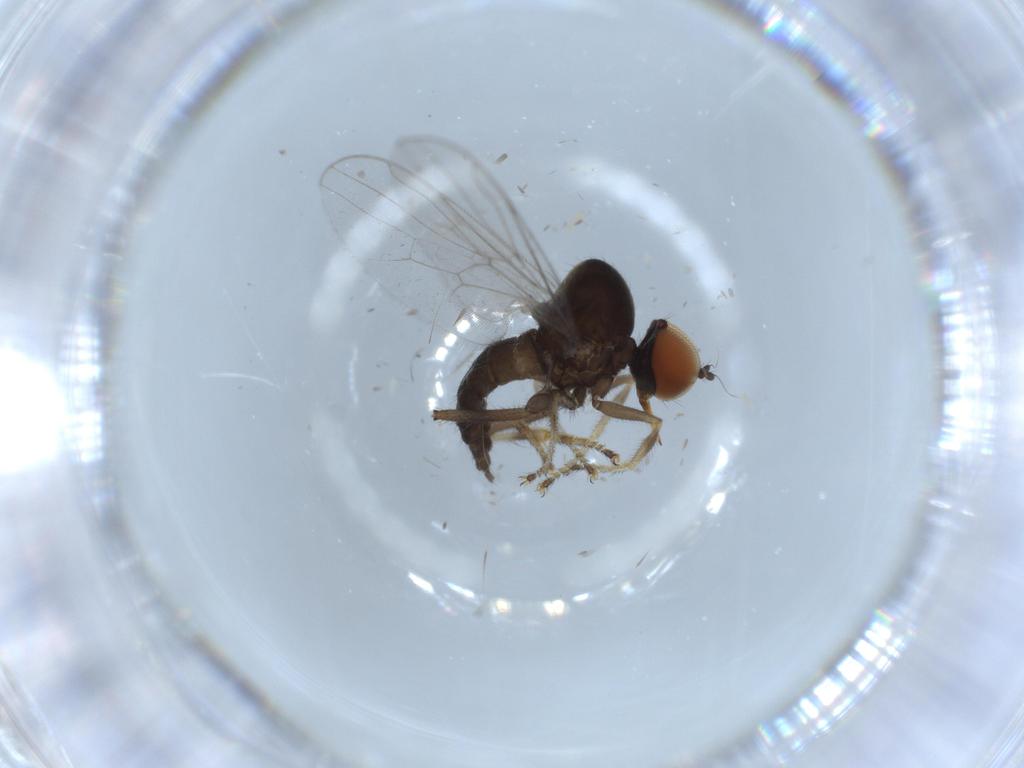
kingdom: Animalia
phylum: Arthropoda
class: Insecta
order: Diptera
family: Hybotidae
